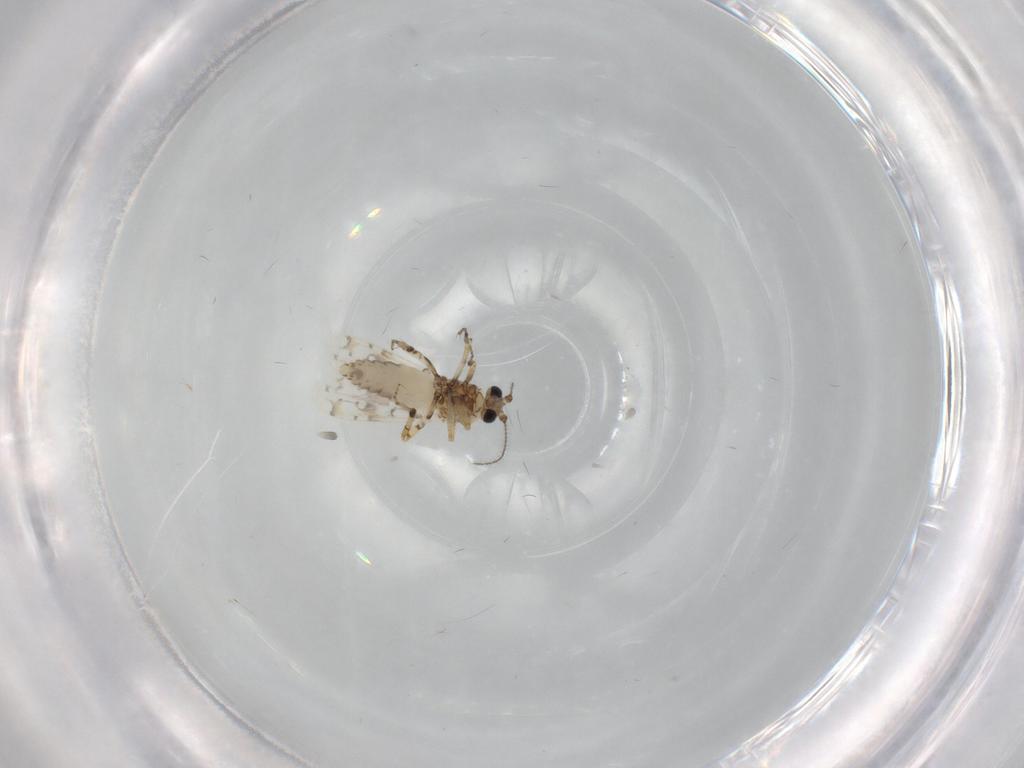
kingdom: Animalia
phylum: Arthropoda
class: Insecta
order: Diptera
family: Ceratopogonidae
